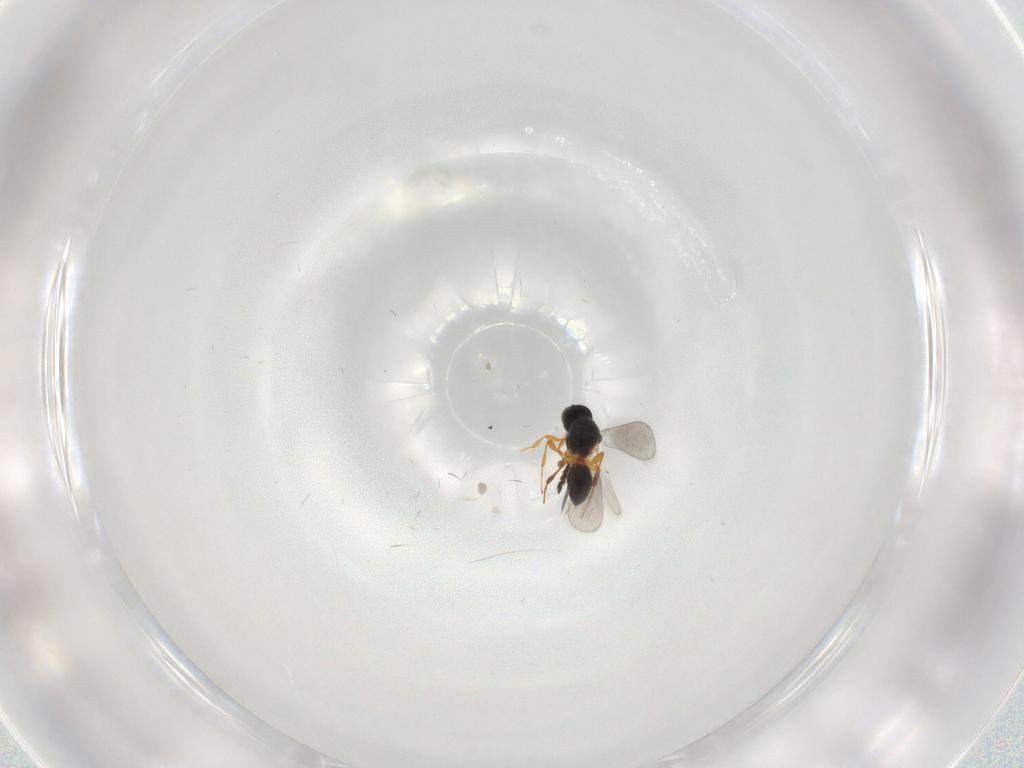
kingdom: Animalia
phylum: Arthropoda
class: Insecta
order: Hymenoptera
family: Platygastridae
